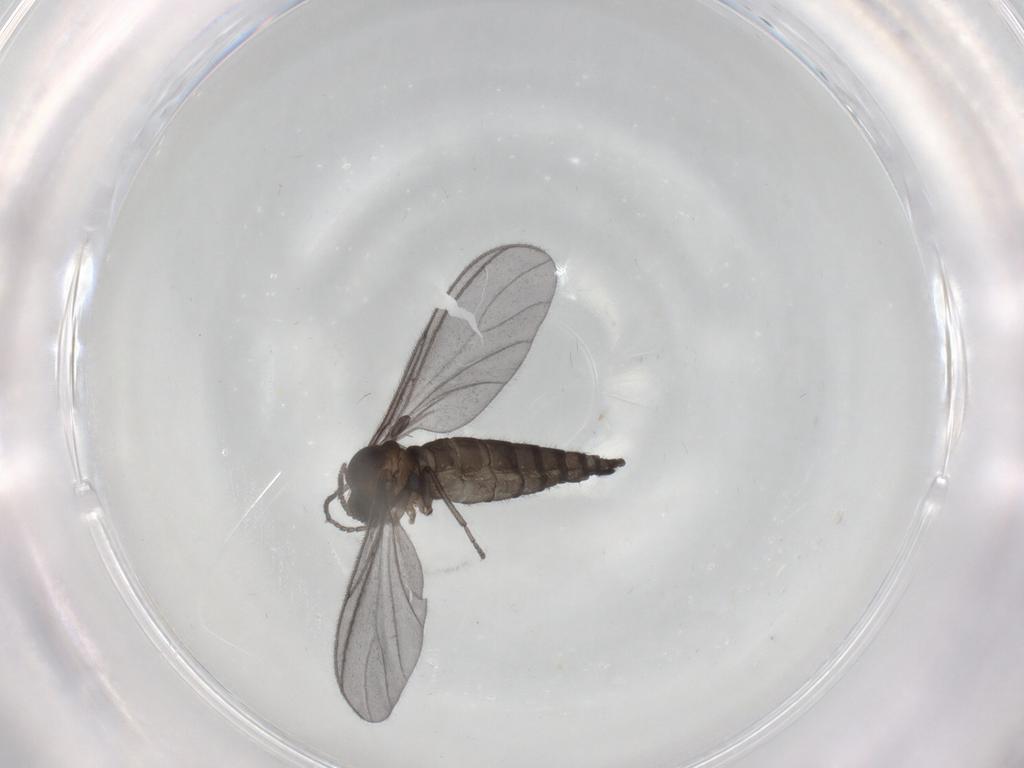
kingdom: Animalia
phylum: Arthropoda
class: Insecta
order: Diptera
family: Sciaridae
